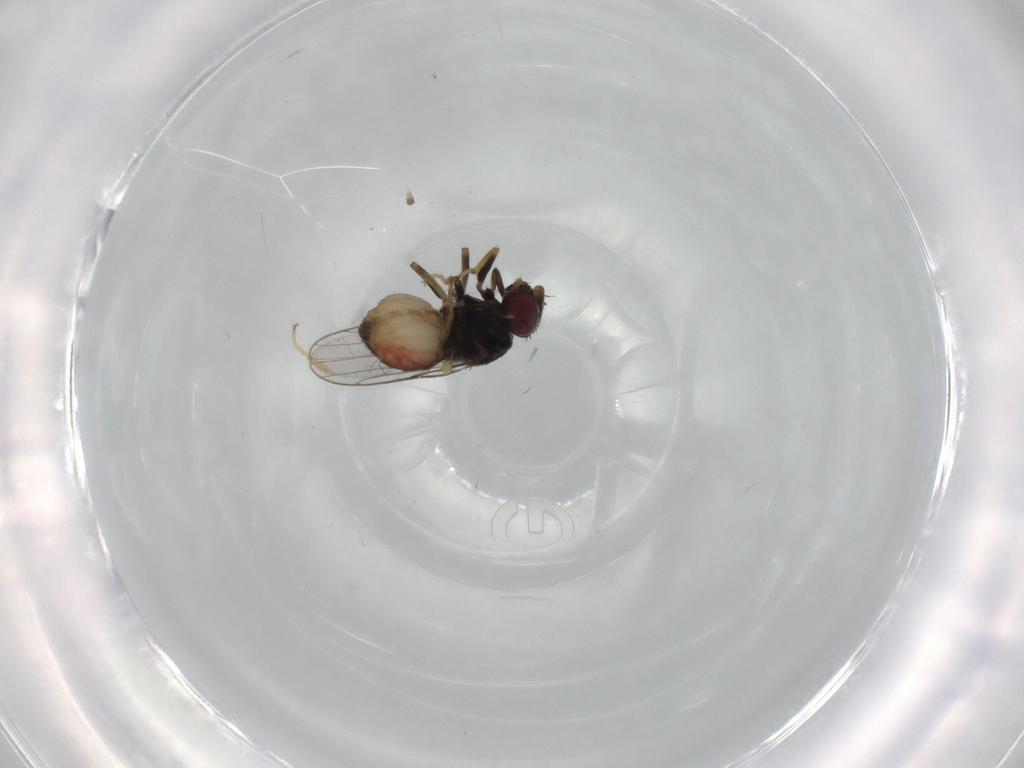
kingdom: Animalia
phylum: Arthropoda
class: Insecta
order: Diptera
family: Chloropidae
